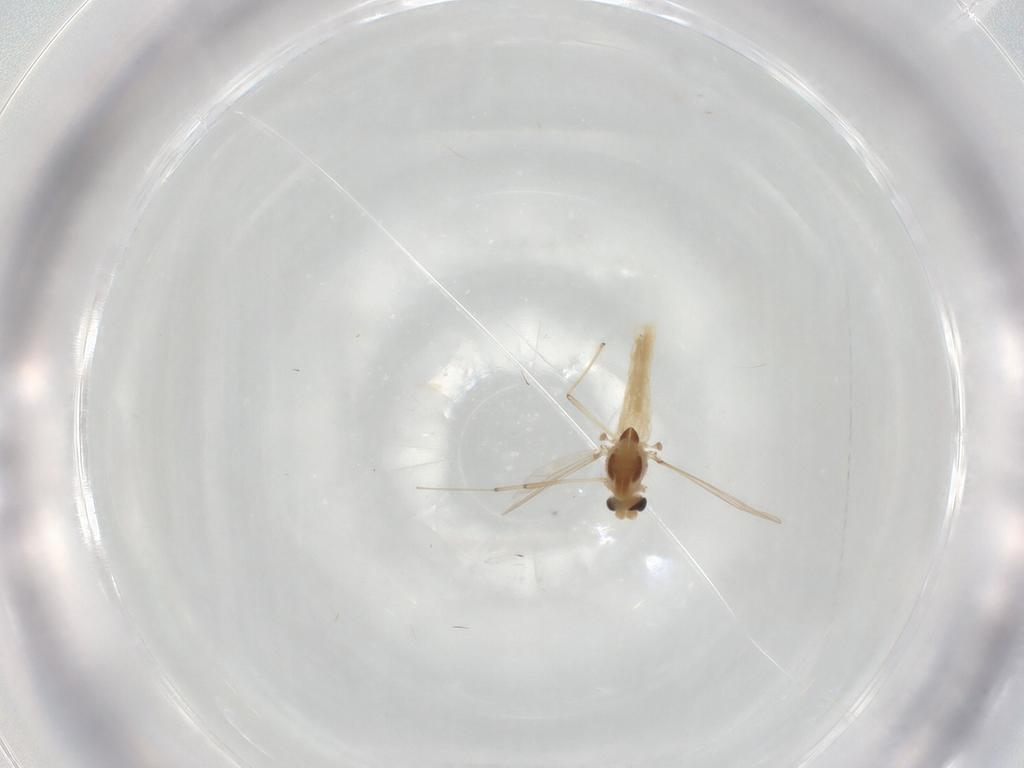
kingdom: Animalia
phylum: Arthropoda
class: Insecta
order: Diptera
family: Chironomidae
